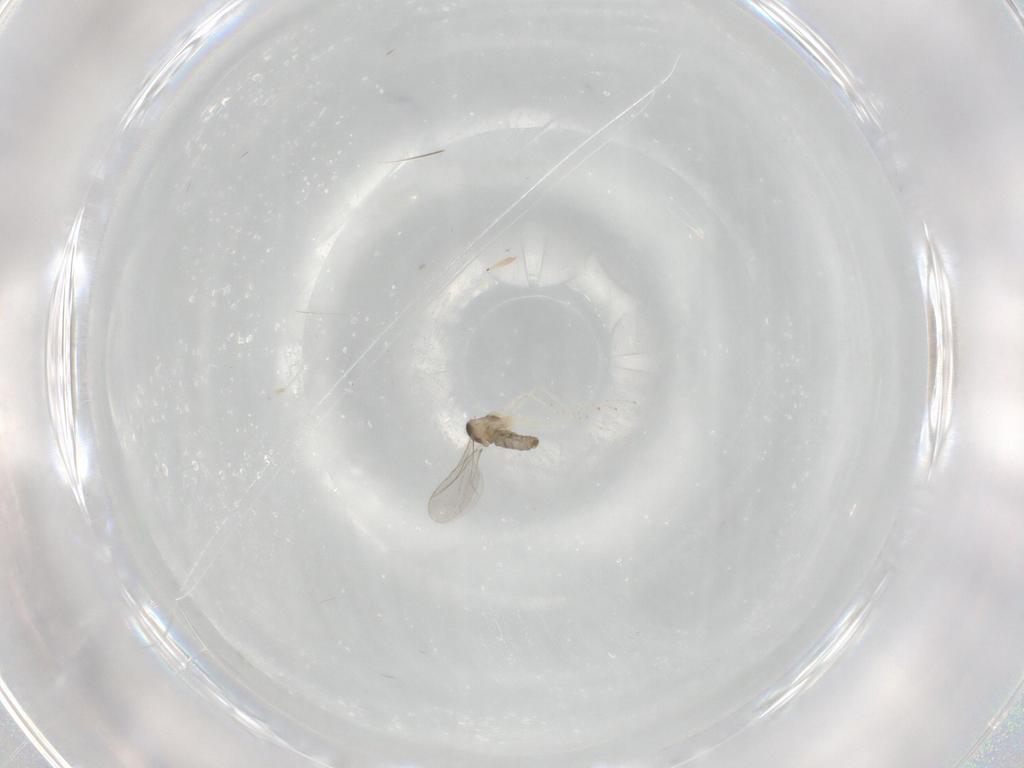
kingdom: Animalia
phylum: Arthropoda
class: Insecta
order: Diptera
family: Cecidomyiidae
